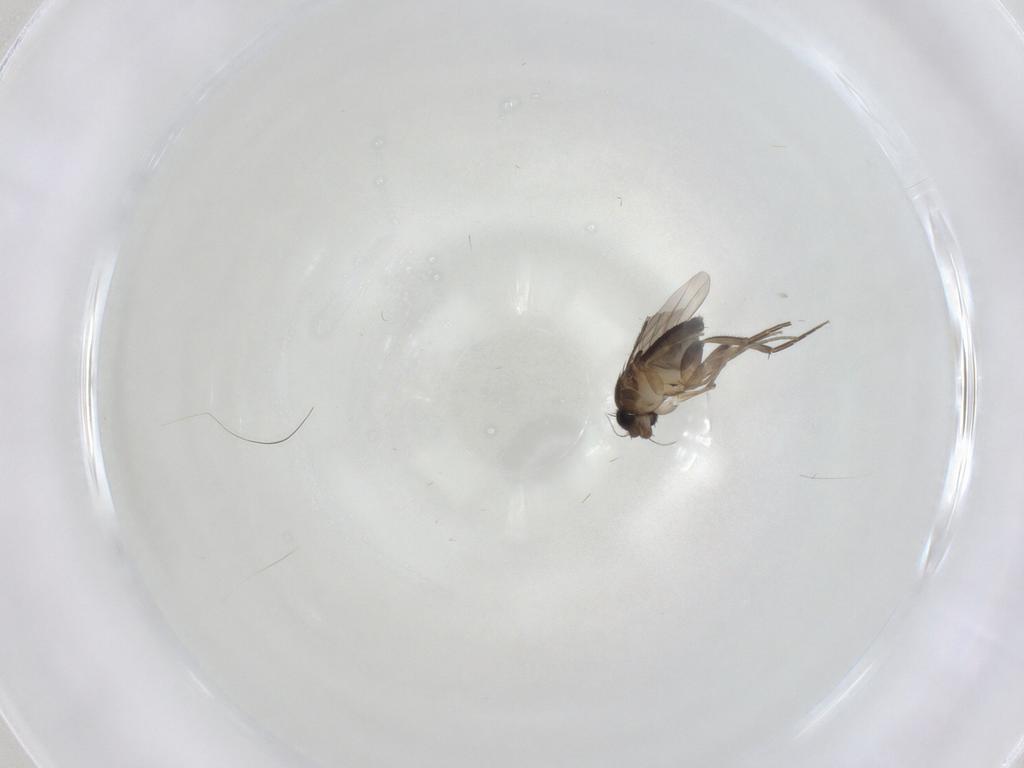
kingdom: Animalia
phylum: Arthropoda
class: Insecta
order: Diptera
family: Phoridae
